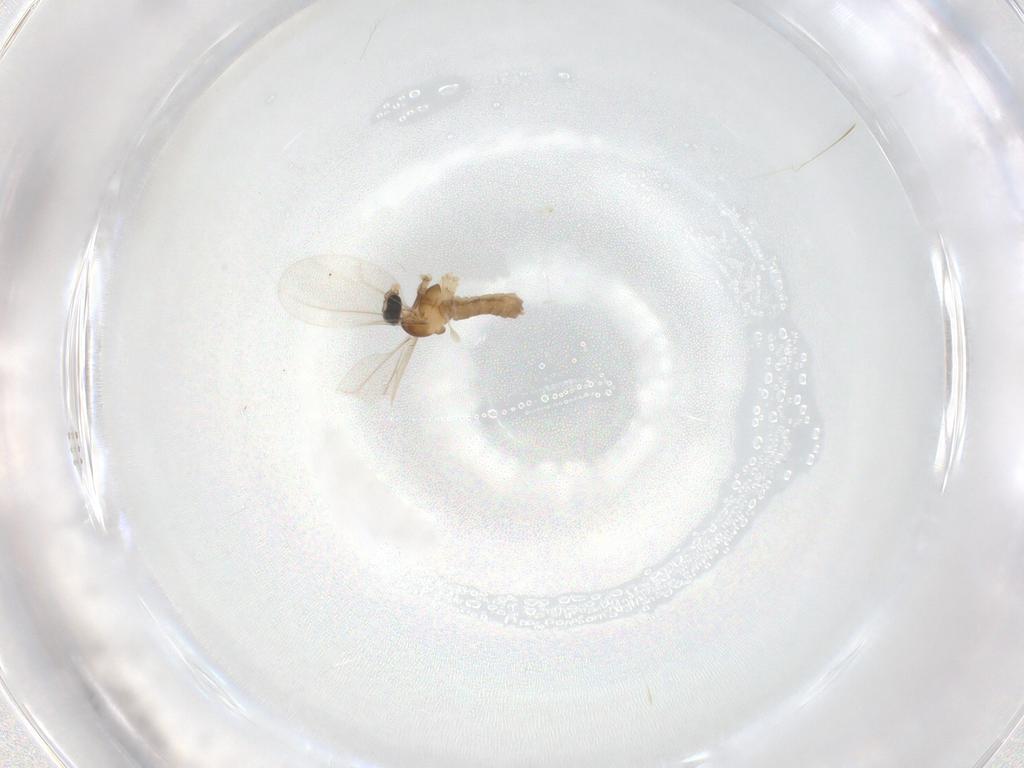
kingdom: Animalia
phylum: Arthropoda
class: Insecta
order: Diptera
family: Cecidomyiidae
